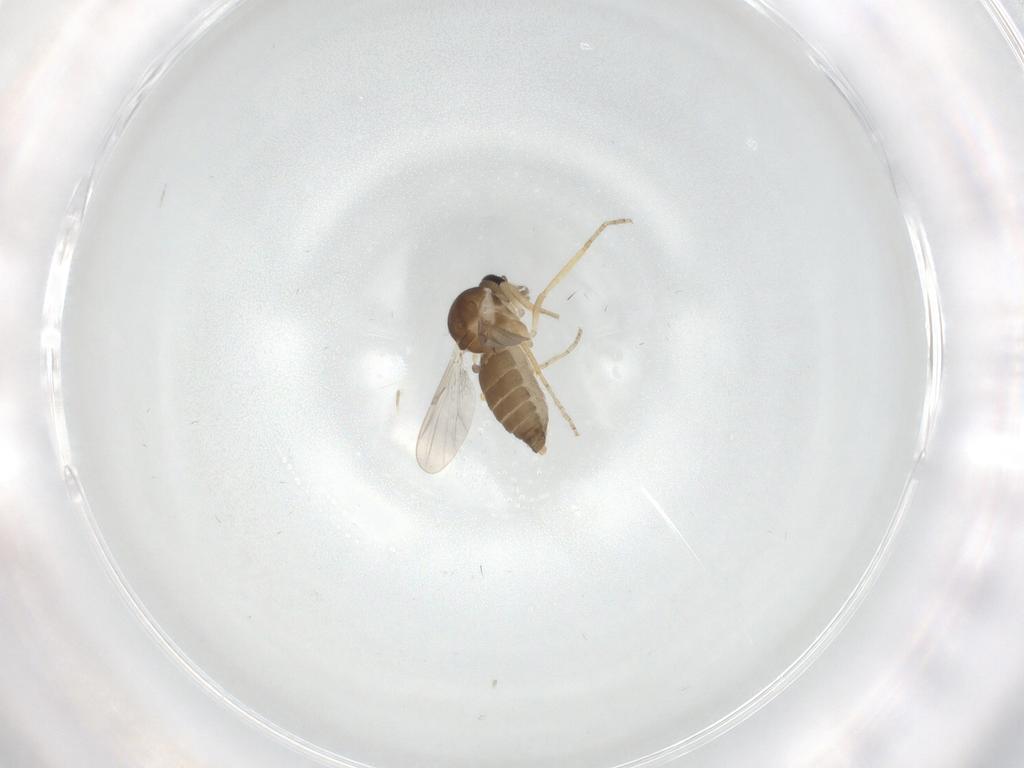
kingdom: Animalia
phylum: Arthropoda
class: Insecta
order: Diptera
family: Ceratopogonidae
